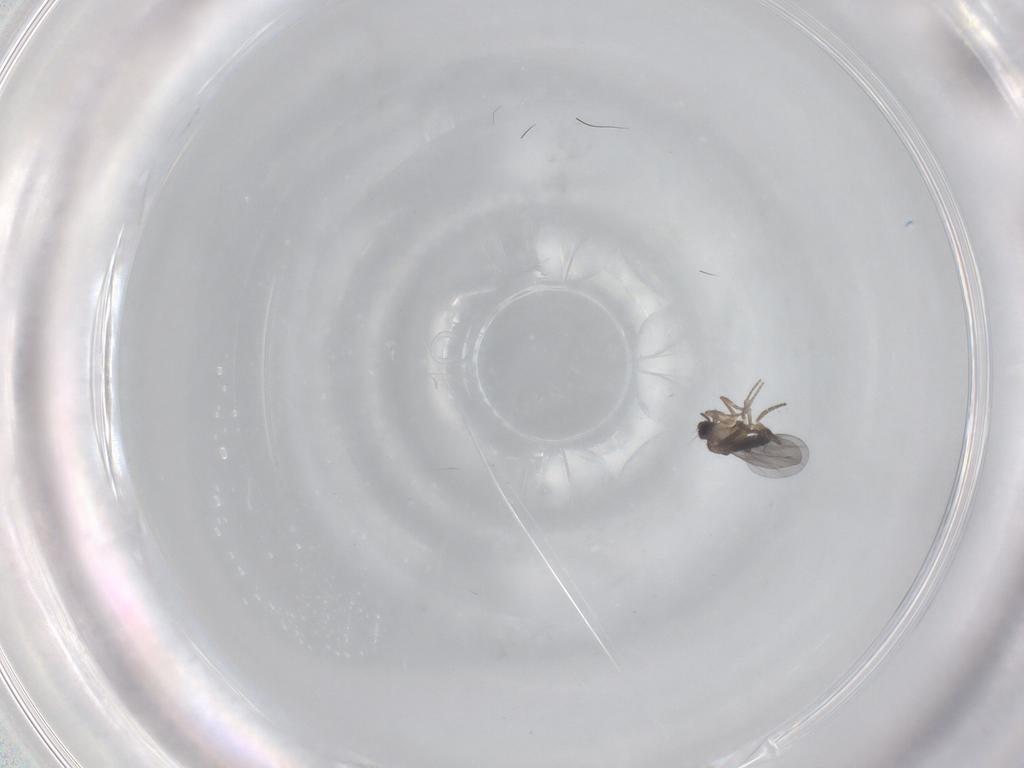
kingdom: Animalia
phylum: Arthropoda
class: Insecta
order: Diptera
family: Tabanidae
